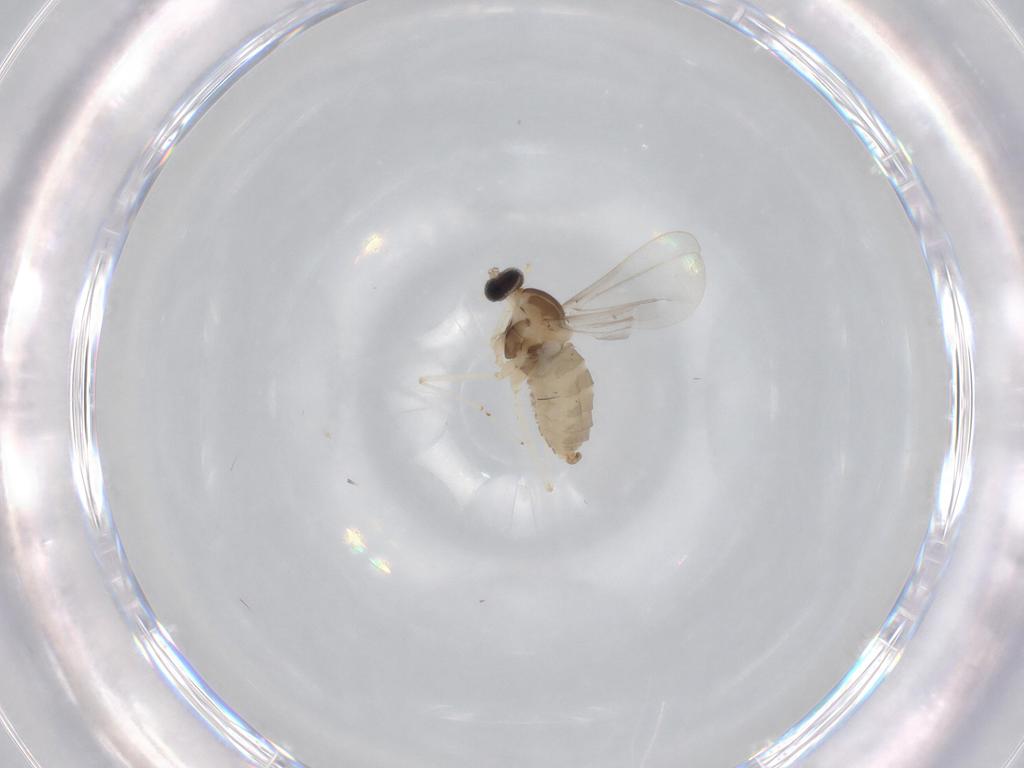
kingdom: Animalia
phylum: Arthropoda
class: Insecta
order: Diptera
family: Cecidomyiidae
